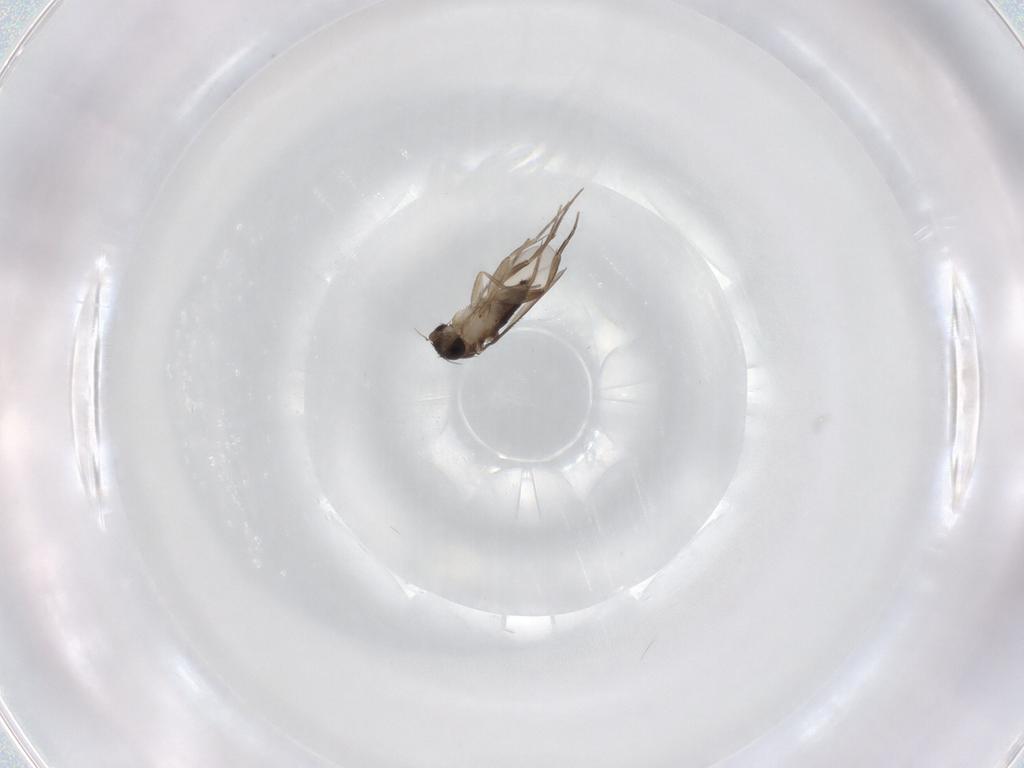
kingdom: Animalia
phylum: Arthropoda
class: Insecta
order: Diptera
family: Phoridae
